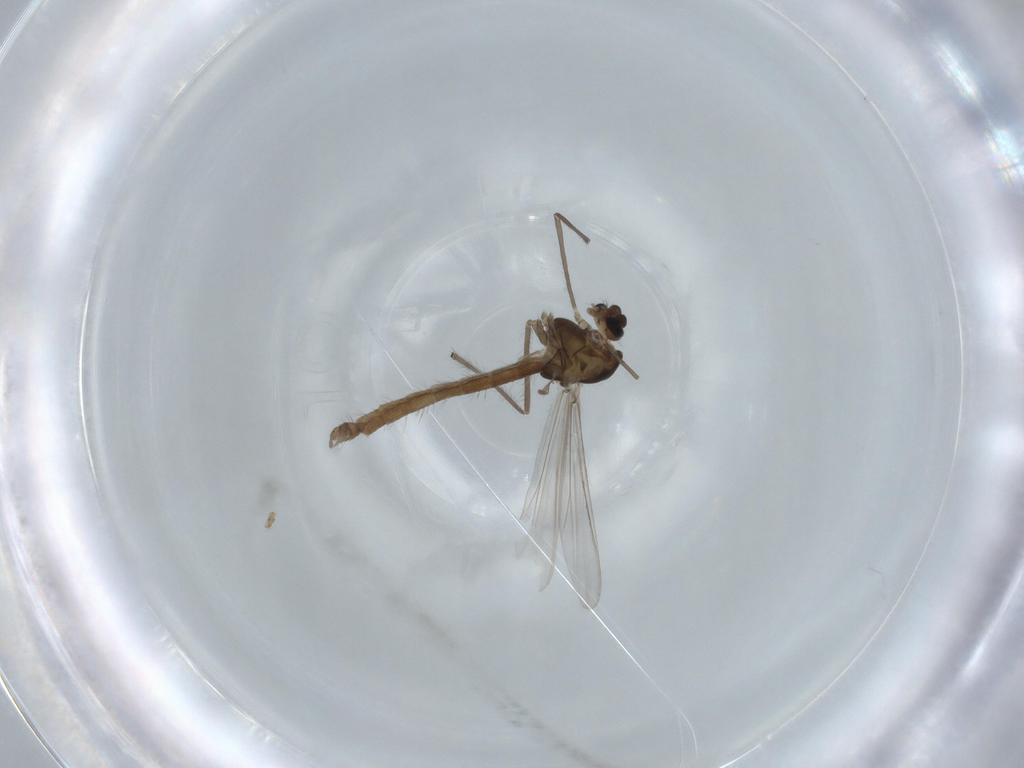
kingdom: Animalia
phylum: Arthropoda
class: Insecta
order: Diptera
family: Chironomidae
